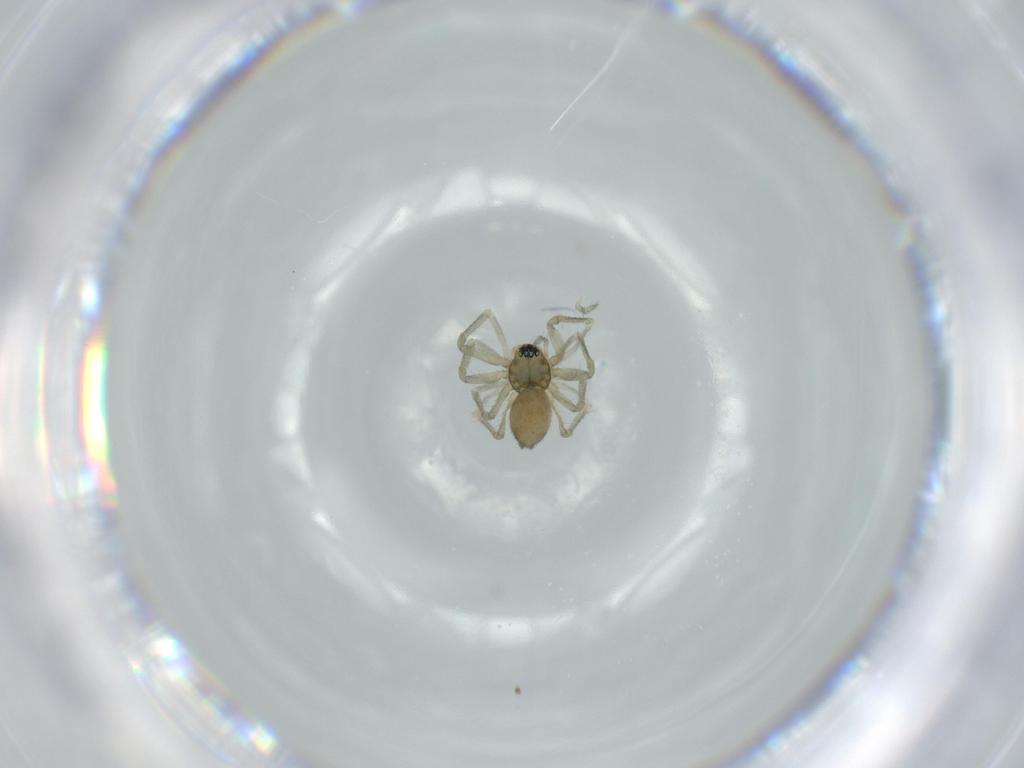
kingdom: Animalia
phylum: Arthropoda
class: Arachnida
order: Araneae
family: Linyphiidae
